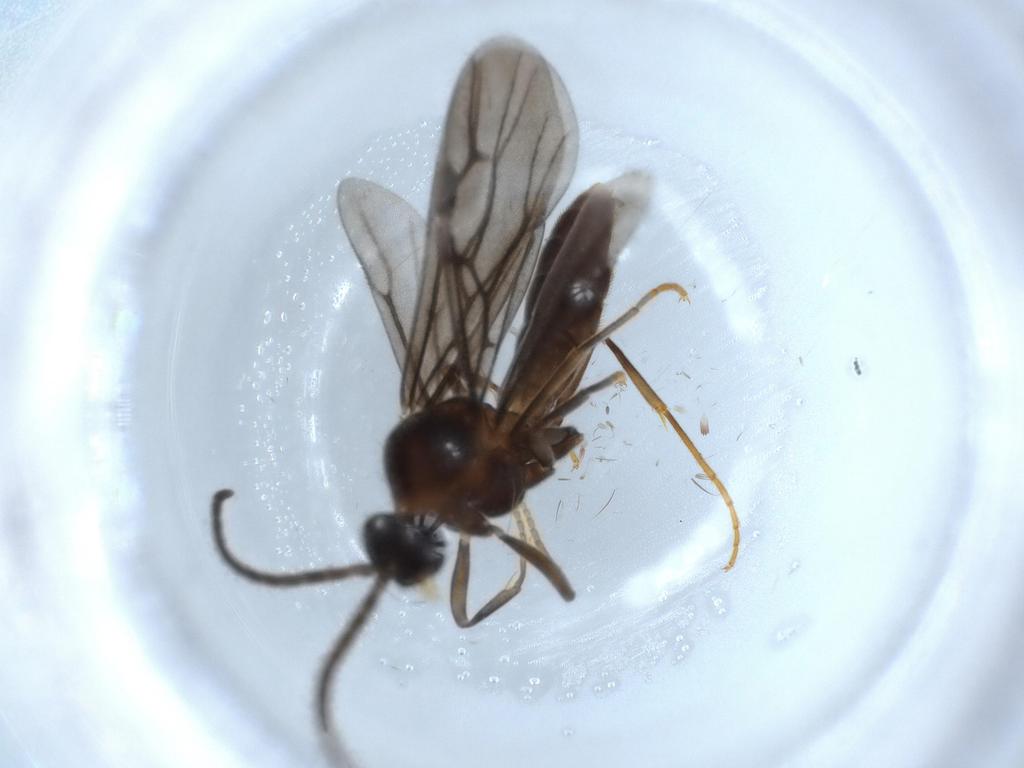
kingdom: Animalia
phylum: Arthropoda
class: Insecta
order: Hymenoptera
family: Formicidae
